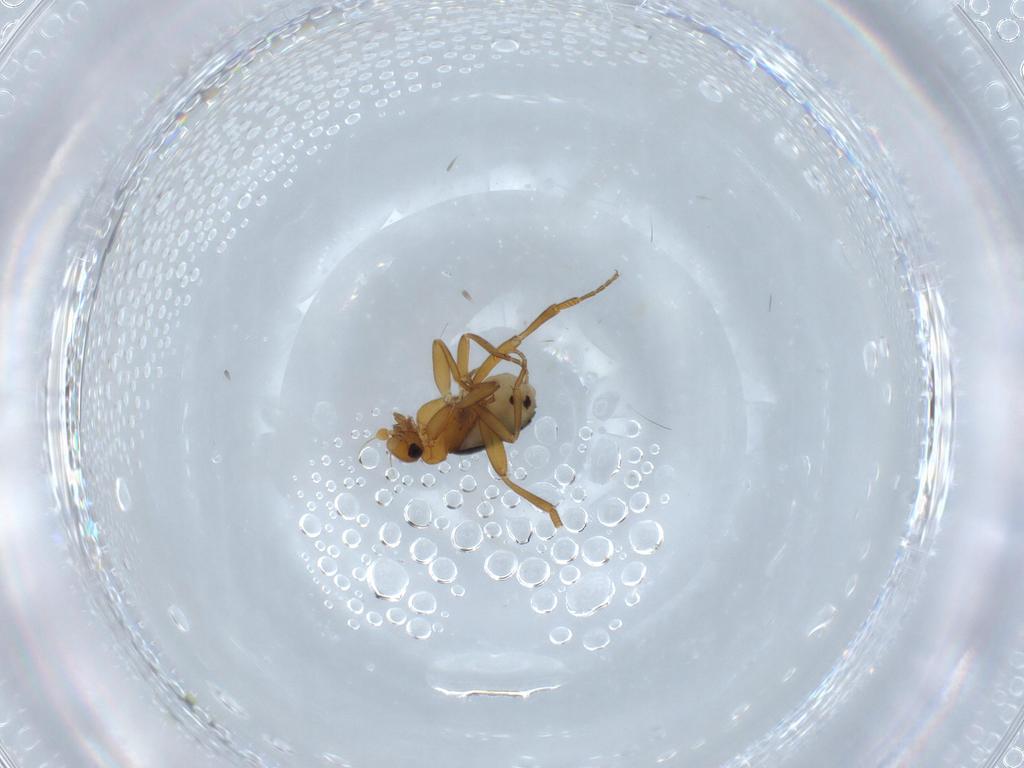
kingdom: Animalia
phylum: Arthropoda
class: Insecta
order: Diptera
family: Phoridae
